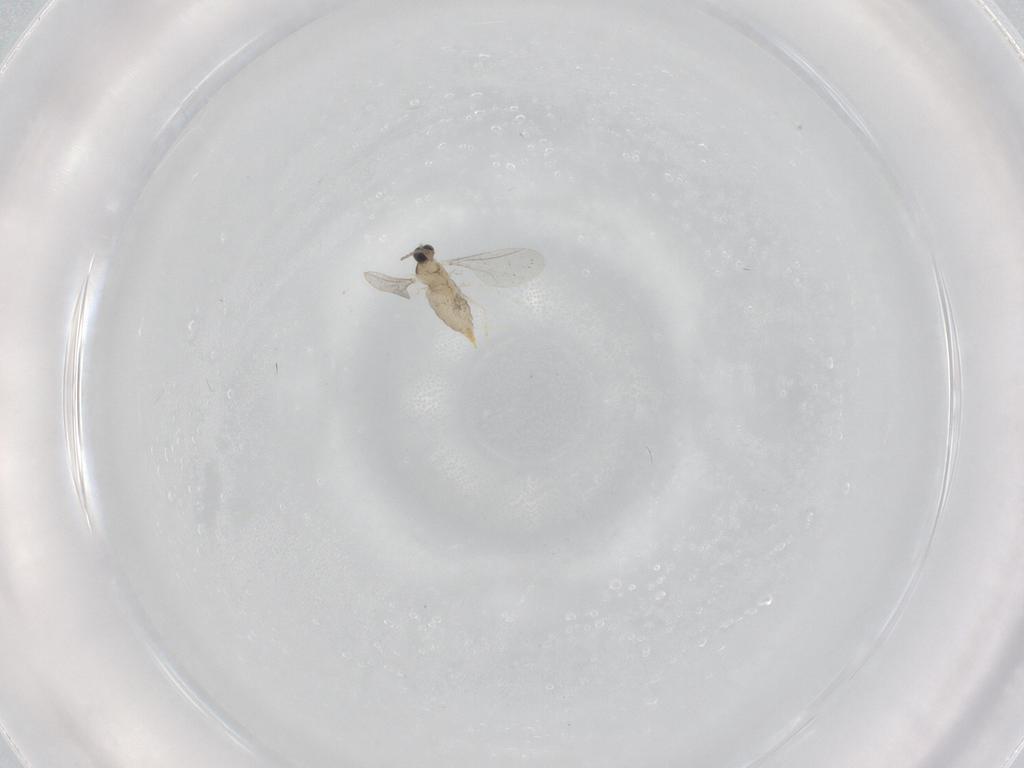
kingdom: Animalia
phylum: Arthropoda
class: Insecta
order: Diptera
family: Cecidomyiidae
